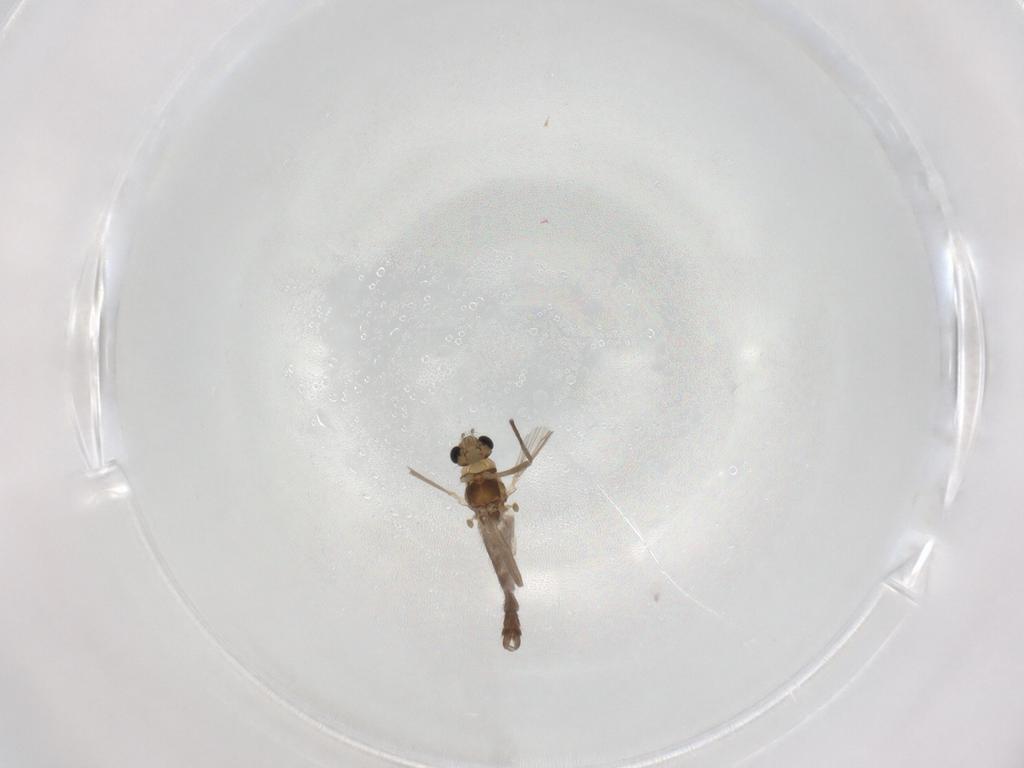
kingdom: Animalia
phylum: Arthropoda
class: Insecta
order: Diptera
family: Chironomidae
